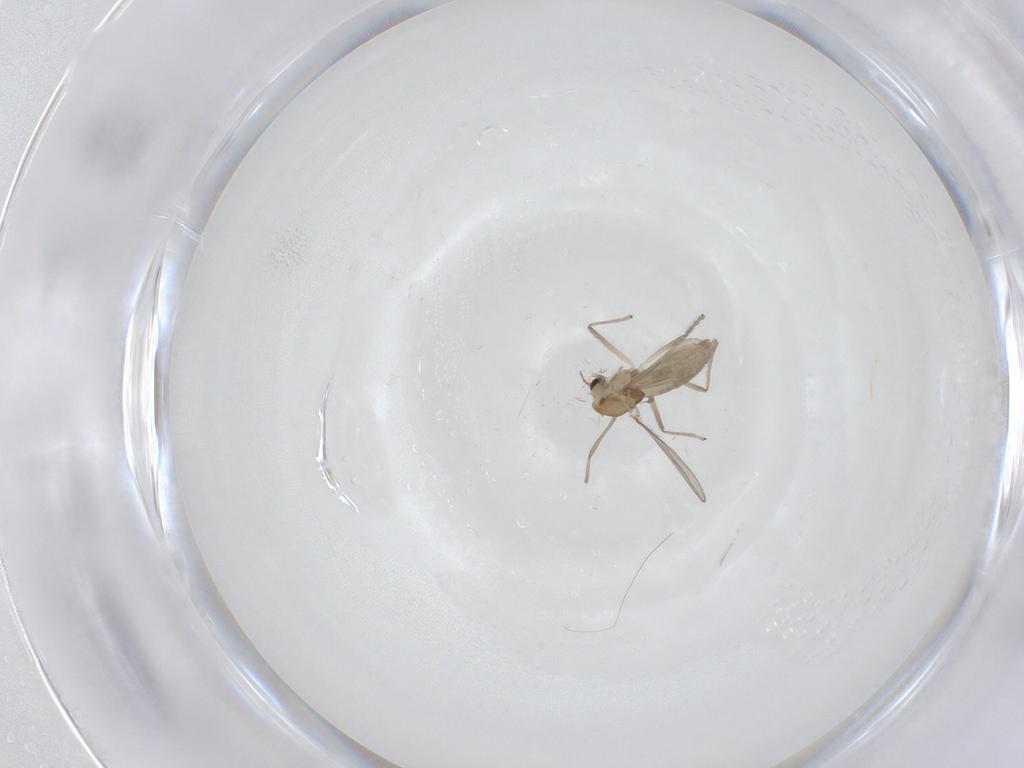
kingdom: Animalia
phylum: Arthropoda
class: Insecta
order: Diptera
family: Chironomidae
